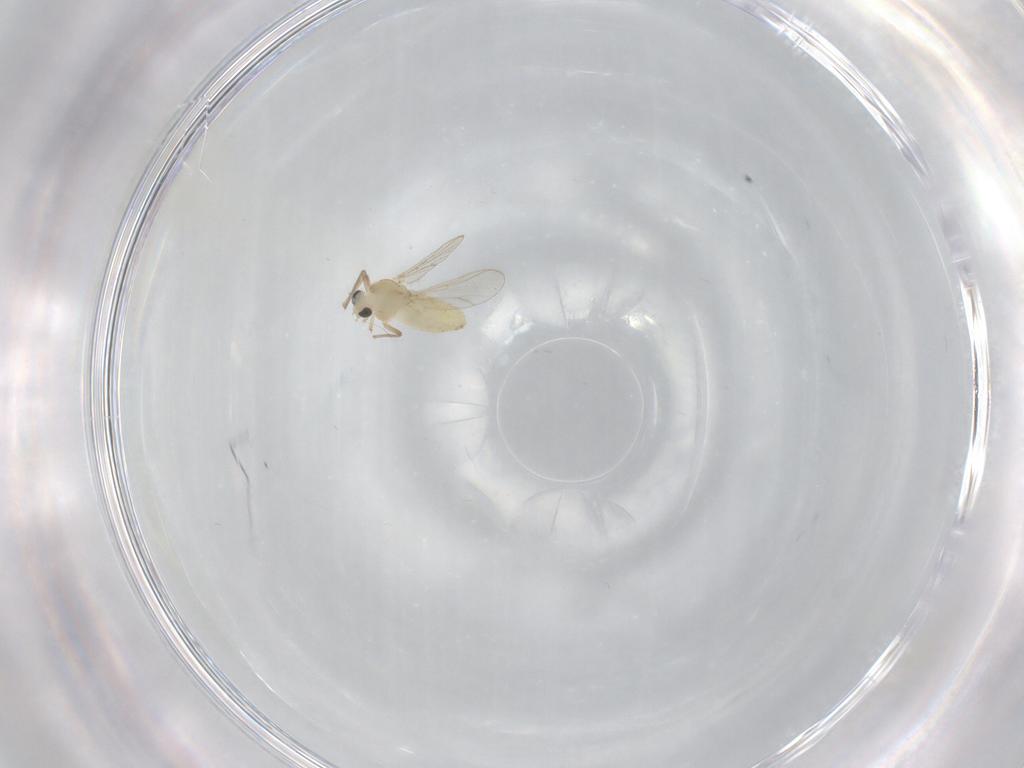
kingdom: Animalia
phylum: Arthropoda
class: Insecta
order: Diptera
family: Chironomidae
